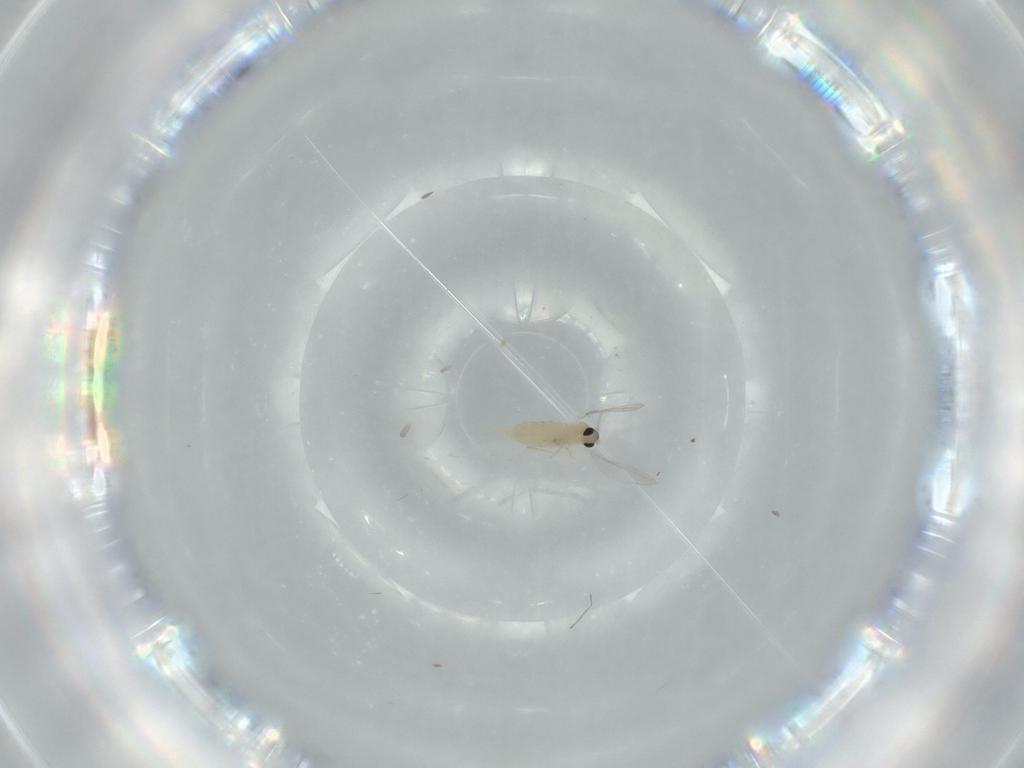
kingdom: Animalia
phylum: Arthropoda
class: Insecta
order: Diptera
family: Cecidomyiidae
